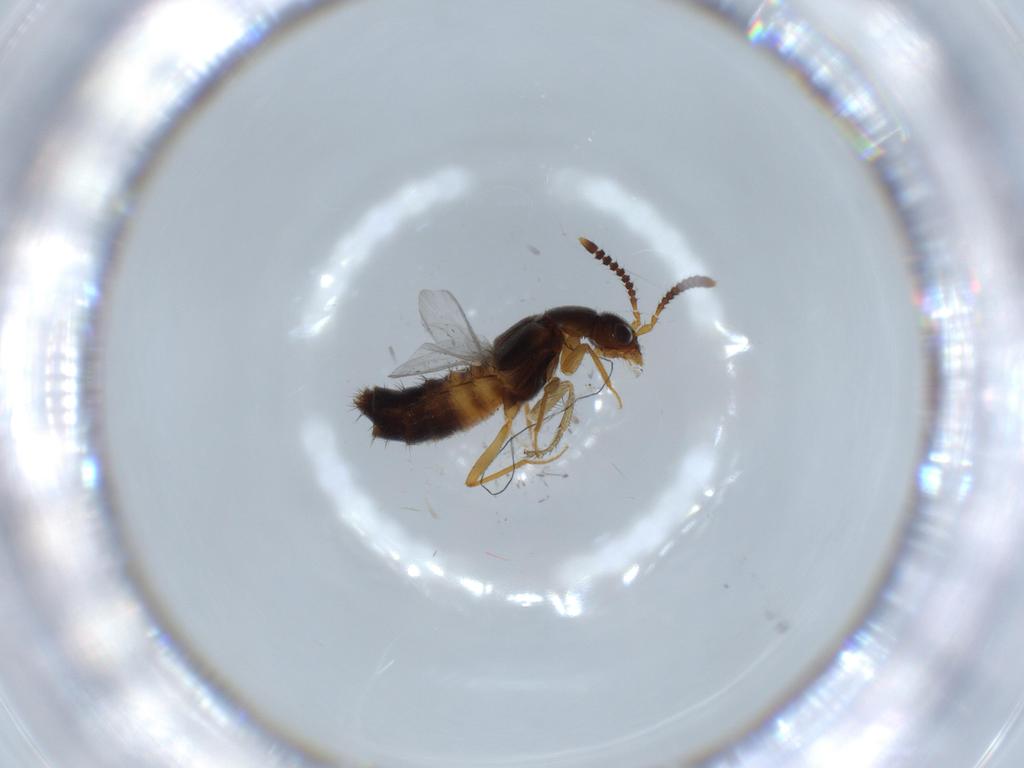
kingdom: Animalia
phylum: Arthropoda
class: Insecta
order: Coleoptera
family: Staphylinidae
